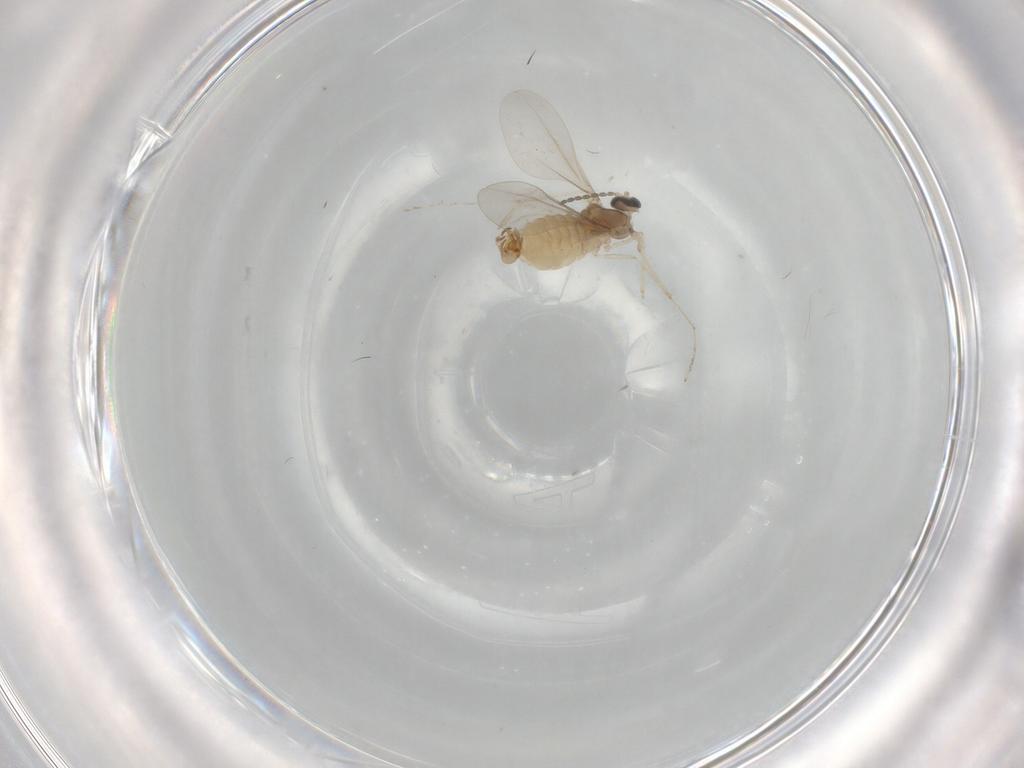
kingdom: Animalia
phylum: Arthropoda
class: Insecta
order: Diptera
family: Cecidomyiidae
